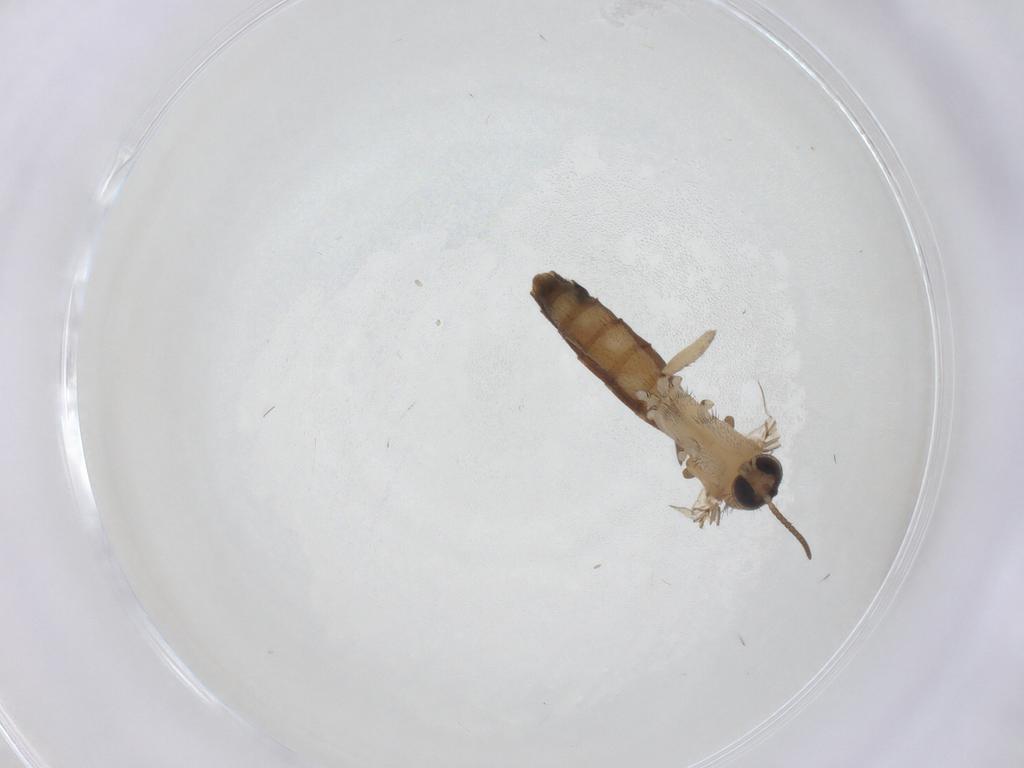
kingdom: Animalia
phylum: Arthropoda
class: Insecta
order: Diptera
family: Keroplatidae
